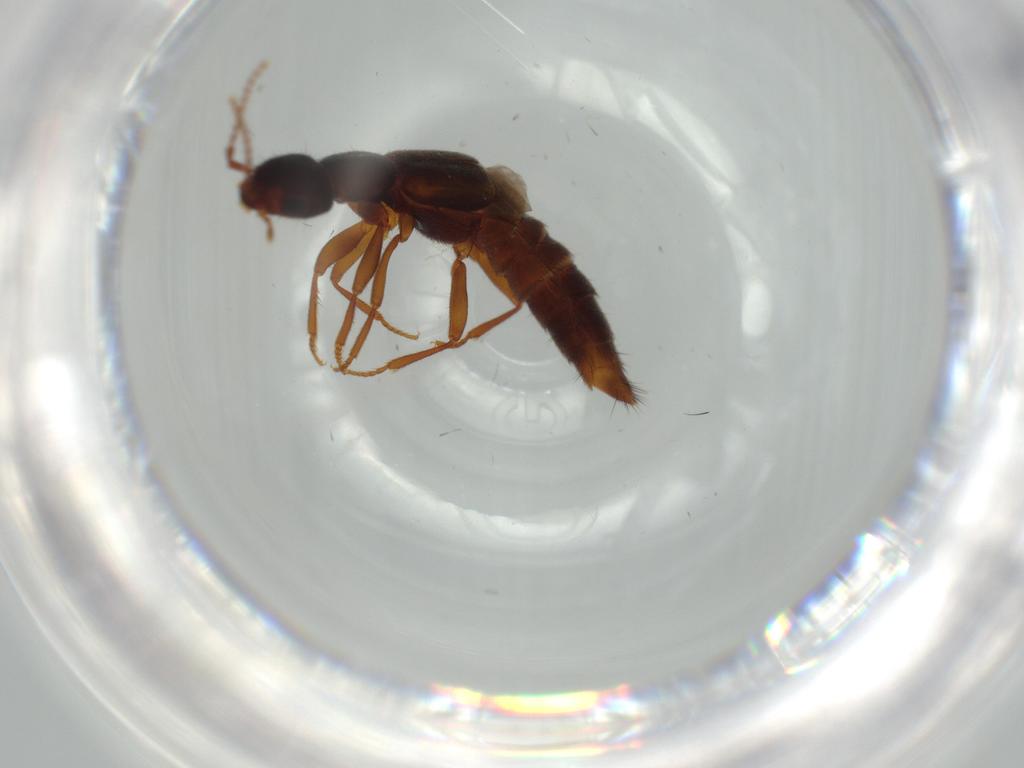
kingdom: Animalia
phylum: Arthropoda
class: Insecta
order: Coleoptera
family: Staphylinidae
